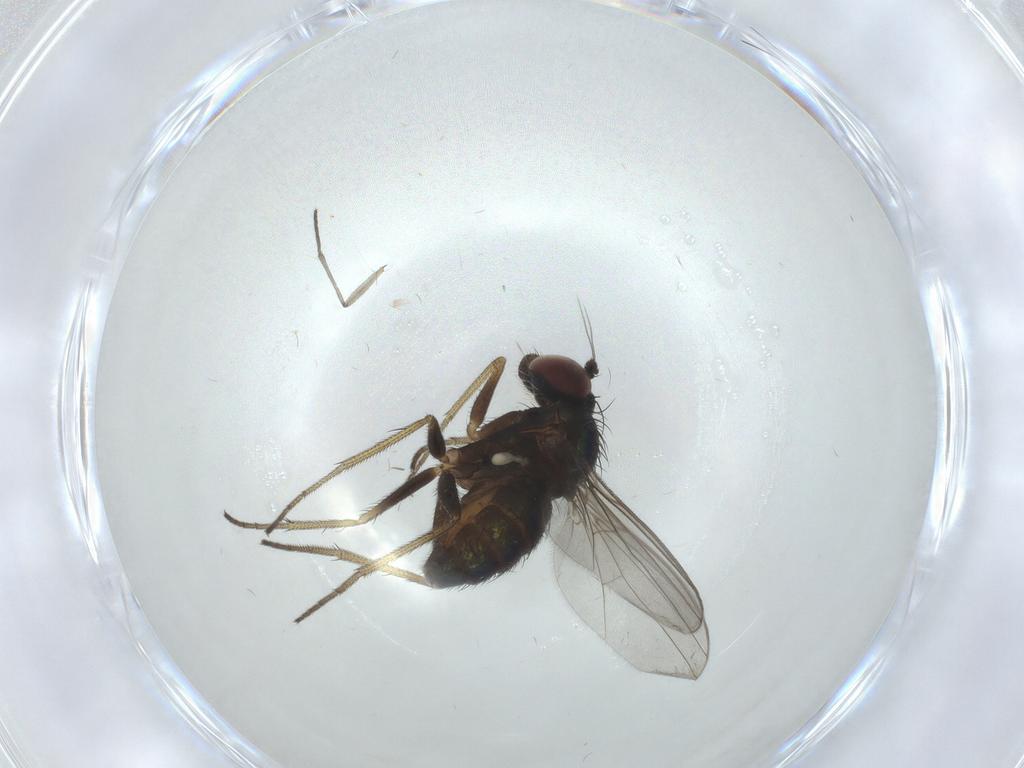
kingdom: Animalia
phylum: Arthropoda
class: Insecta
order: Diptera
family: Sciaridae
